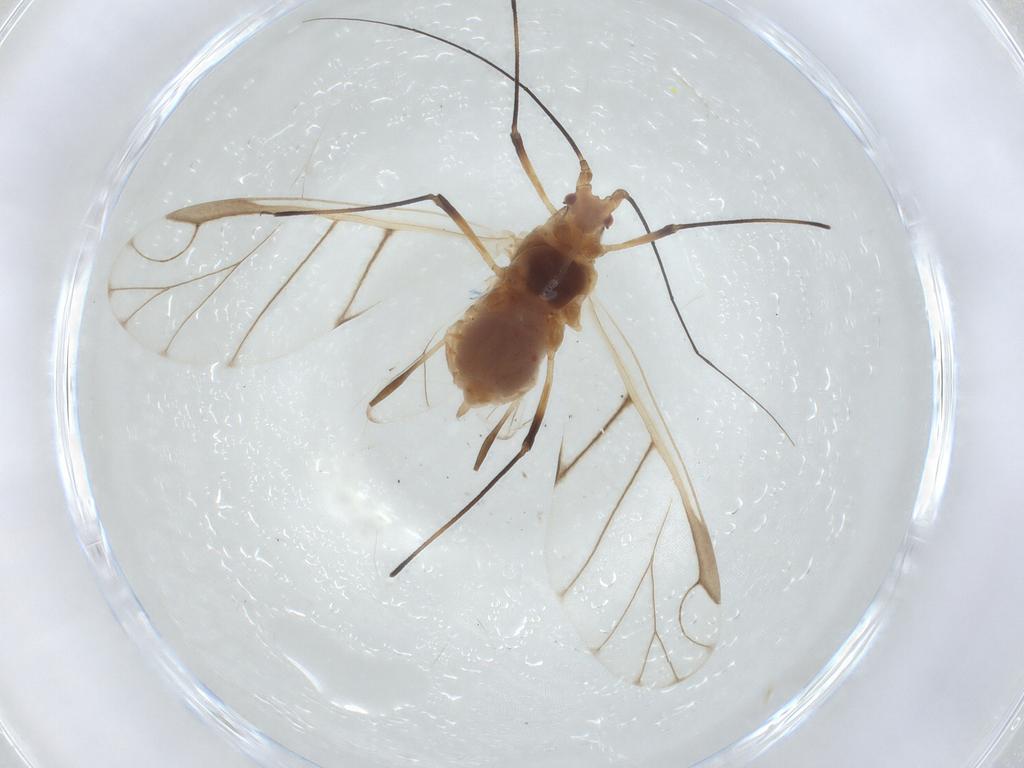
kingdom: Animalia
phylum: Arthropoda
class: Insecta
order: Hemiptera
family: Aphididae
